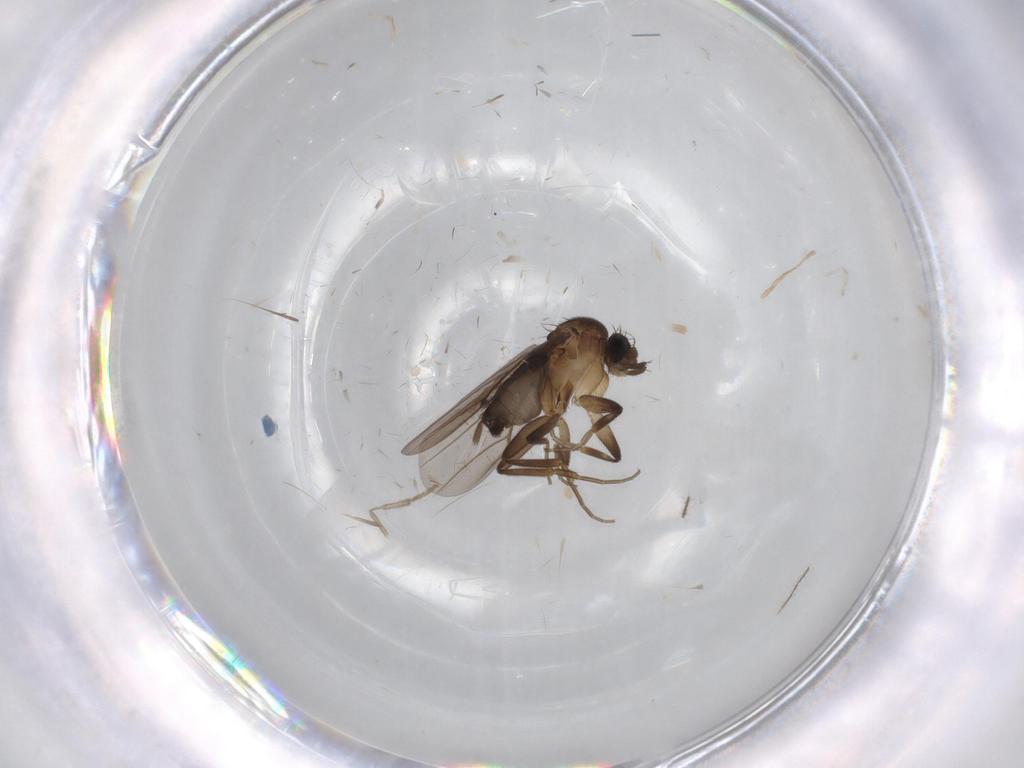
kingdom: Animalia
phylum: Arthropoda
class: Insecta
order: Diptera
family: Phoridae
